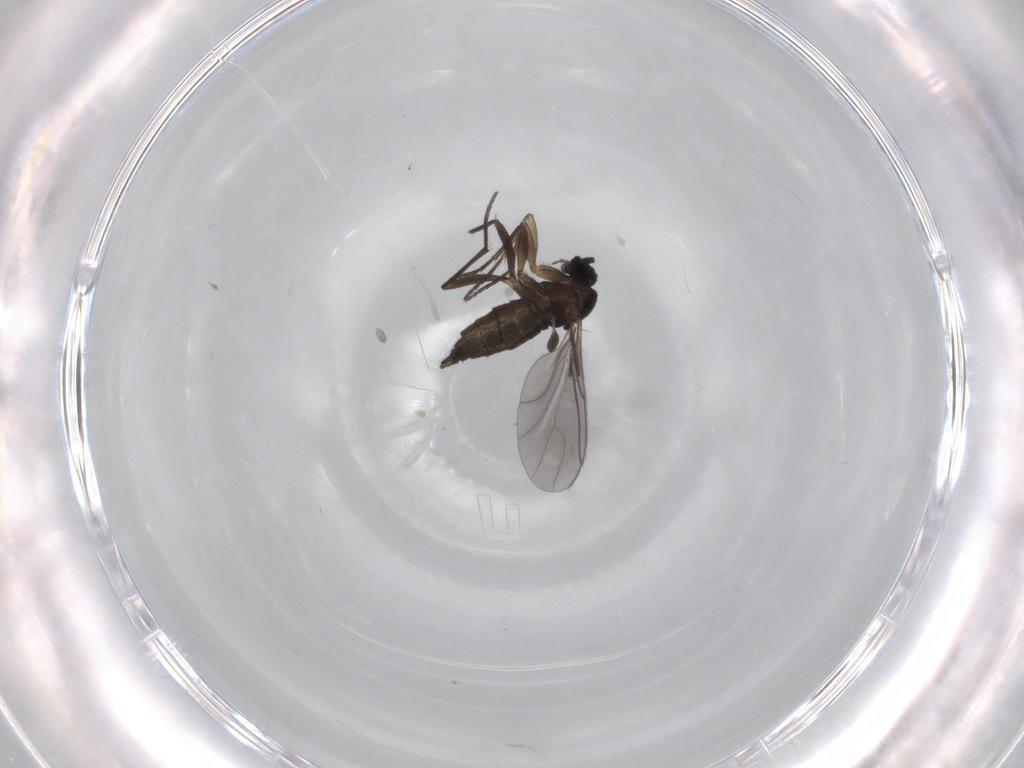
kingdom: Animalia
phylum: Arthropoda
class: Insecta
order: Diptera
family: Sciaridae
